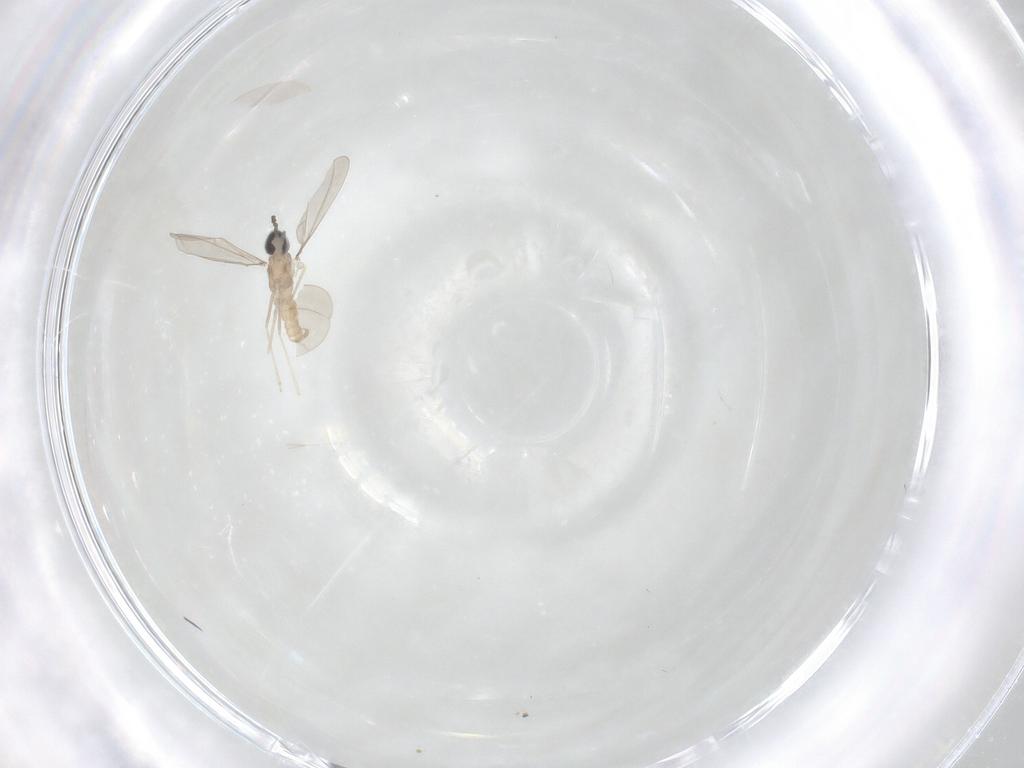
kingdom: Animalia
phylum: Arthropoda
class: Insecta
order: Diptera
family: Cecidomyiidae
